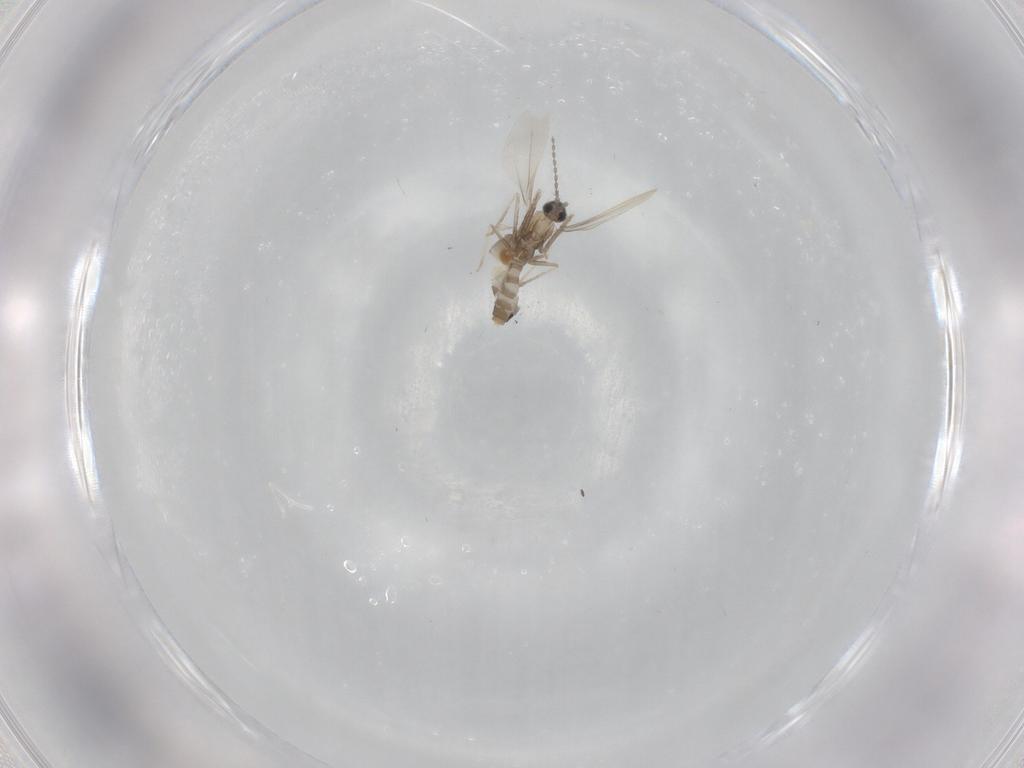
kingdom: Animalia
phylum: Arthropoda
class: Insecta
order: Diptera
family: Cecidomyiidae
